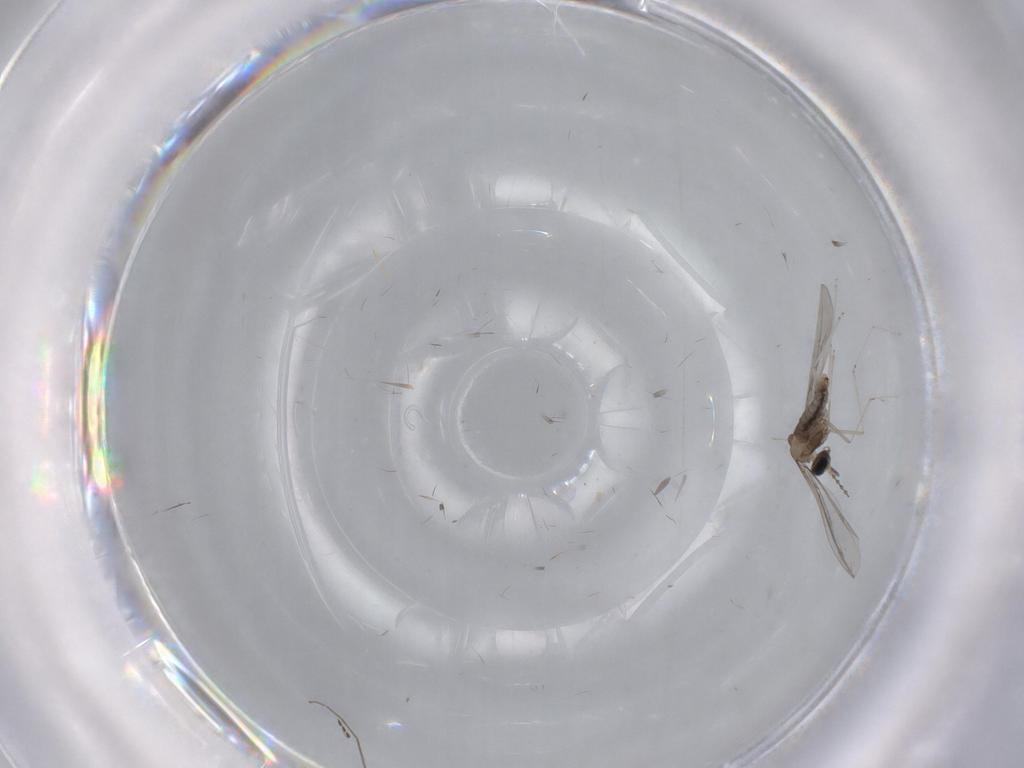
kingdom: Animalia
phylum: Arthropoda
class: Insecta
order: Diptera
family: Cecidomyiidae
